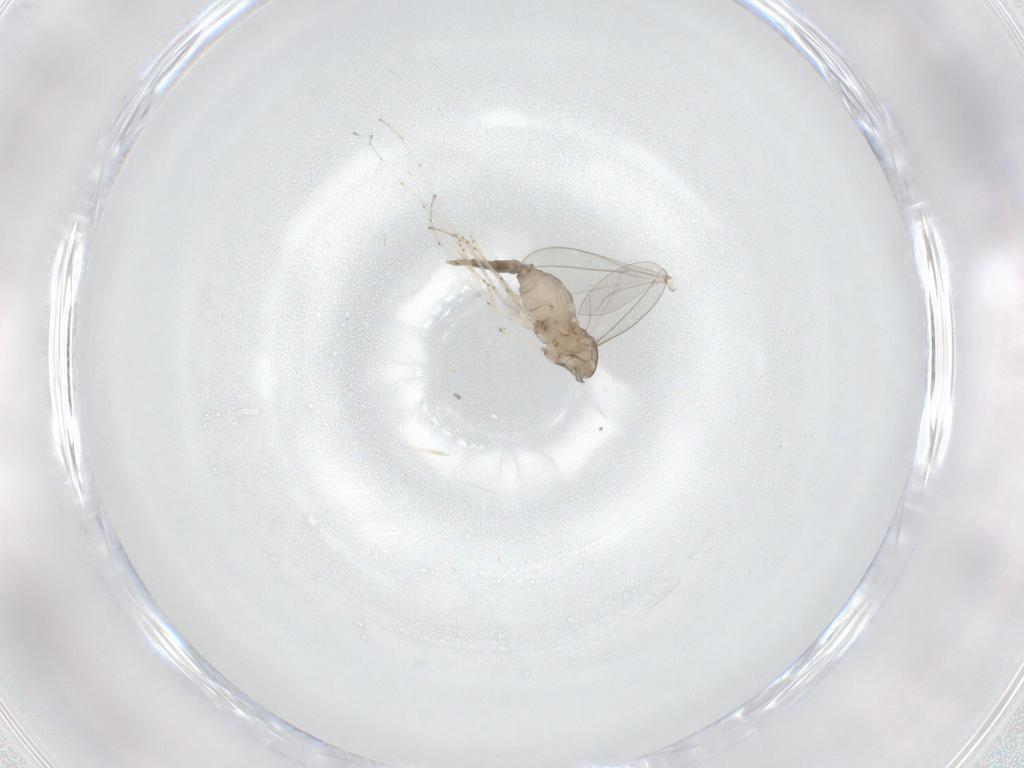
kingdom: Animalia
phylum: Arthropoda
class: Insecta
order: Diptera
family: Cecidomyiidae
